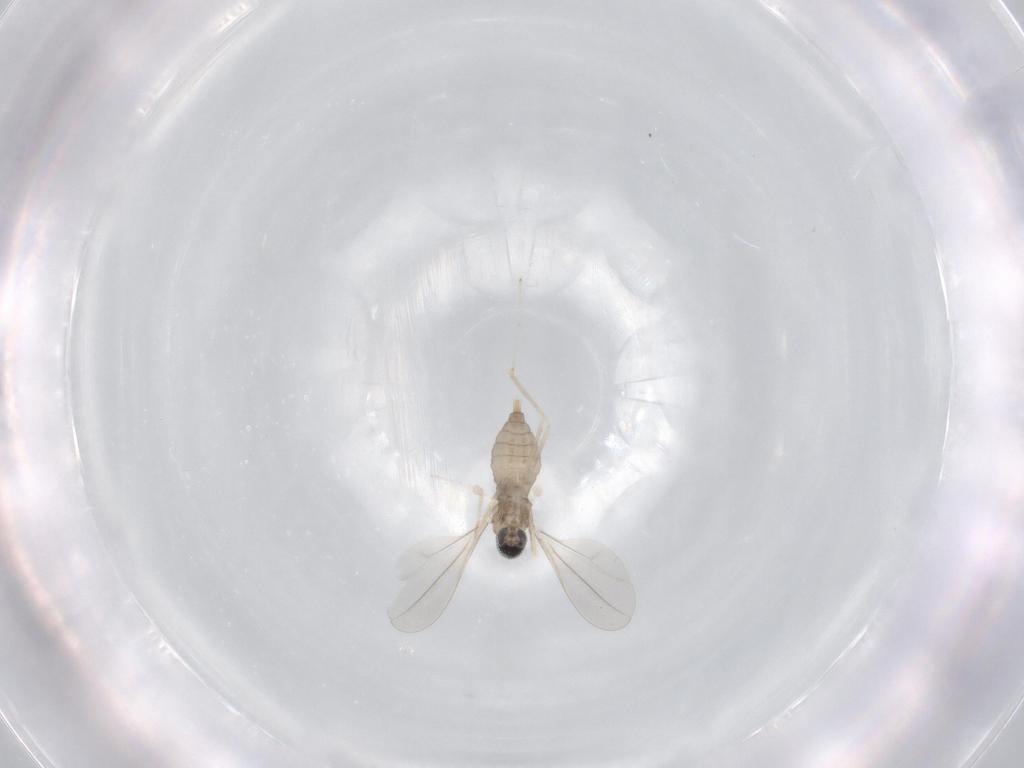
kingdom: Animalia
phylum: Arthropoda
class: Insecta
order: Diptera
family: Cecidomyiidae
